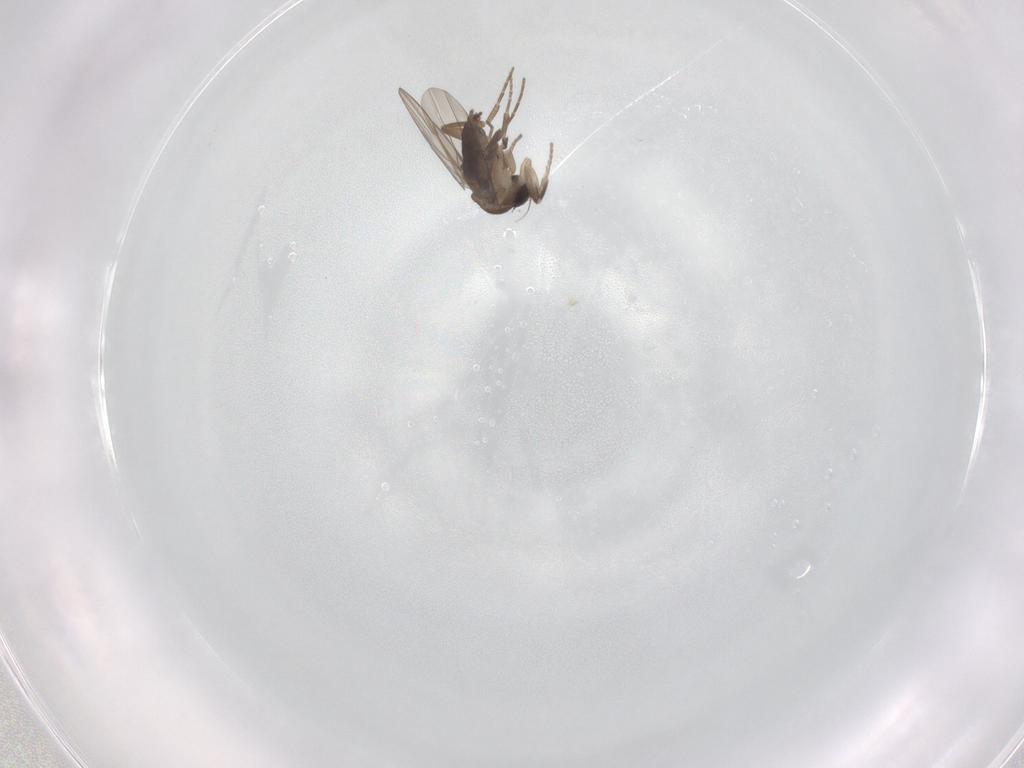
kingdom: Animalia
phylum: Arthropoda
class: Insecta
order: Diptera
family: Phoridae
